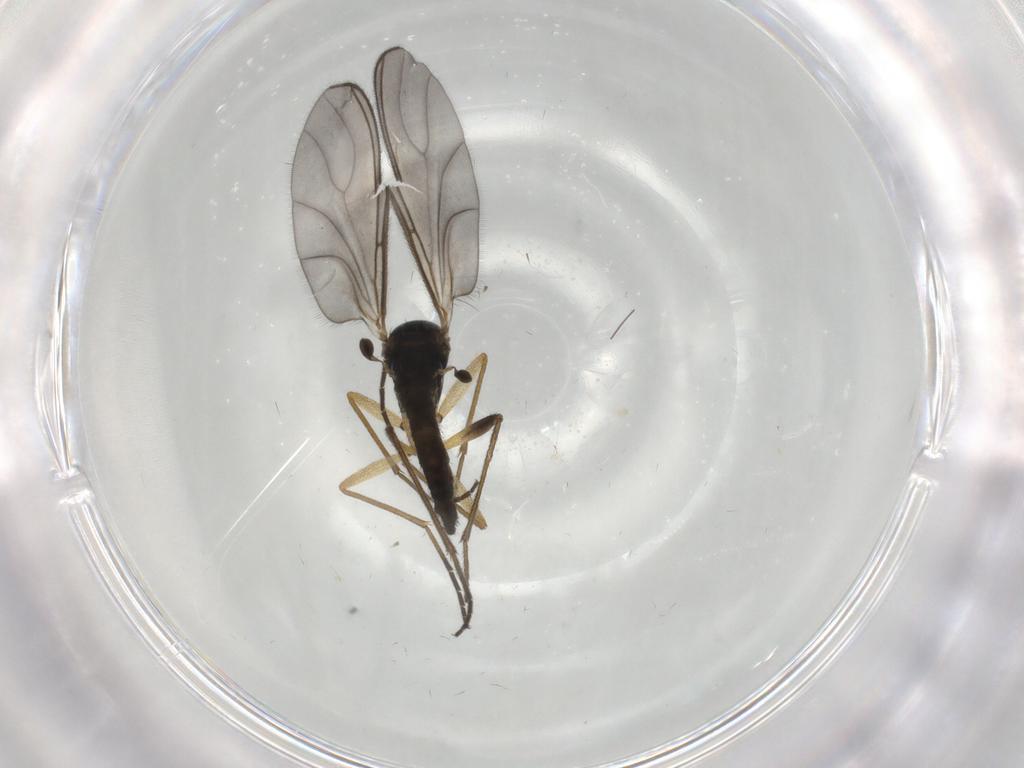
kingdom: Animalia
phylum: Arthropoda
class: Insecta
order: Diptera
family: Sciaridae
